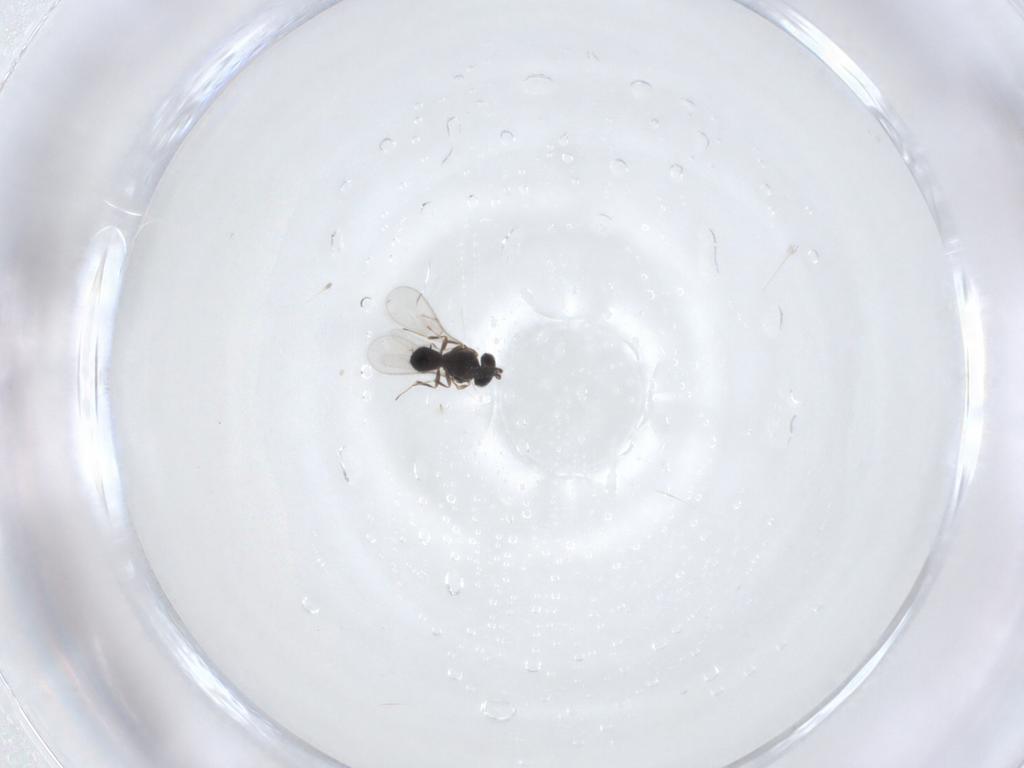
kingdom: Animalia
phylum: Arthropoda
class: Insecta
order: Hymenoptera
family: Scelionidae
